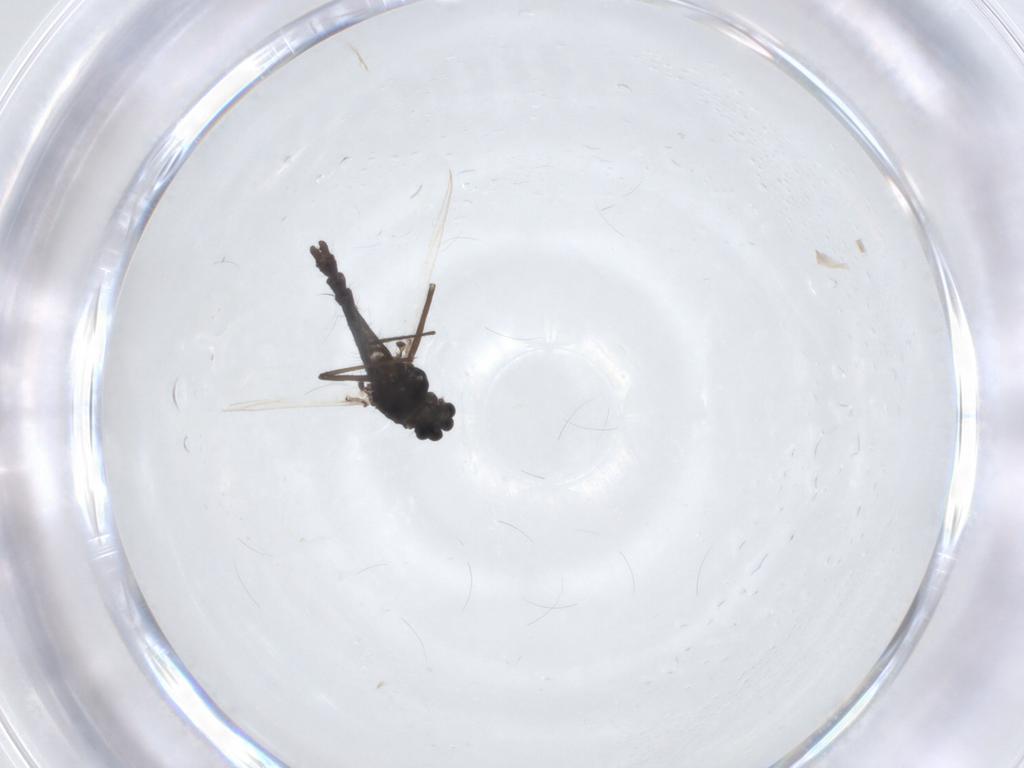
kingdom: Animalia
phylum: Arthropoda
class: Insecta
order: Diptera
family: Chironomidae
